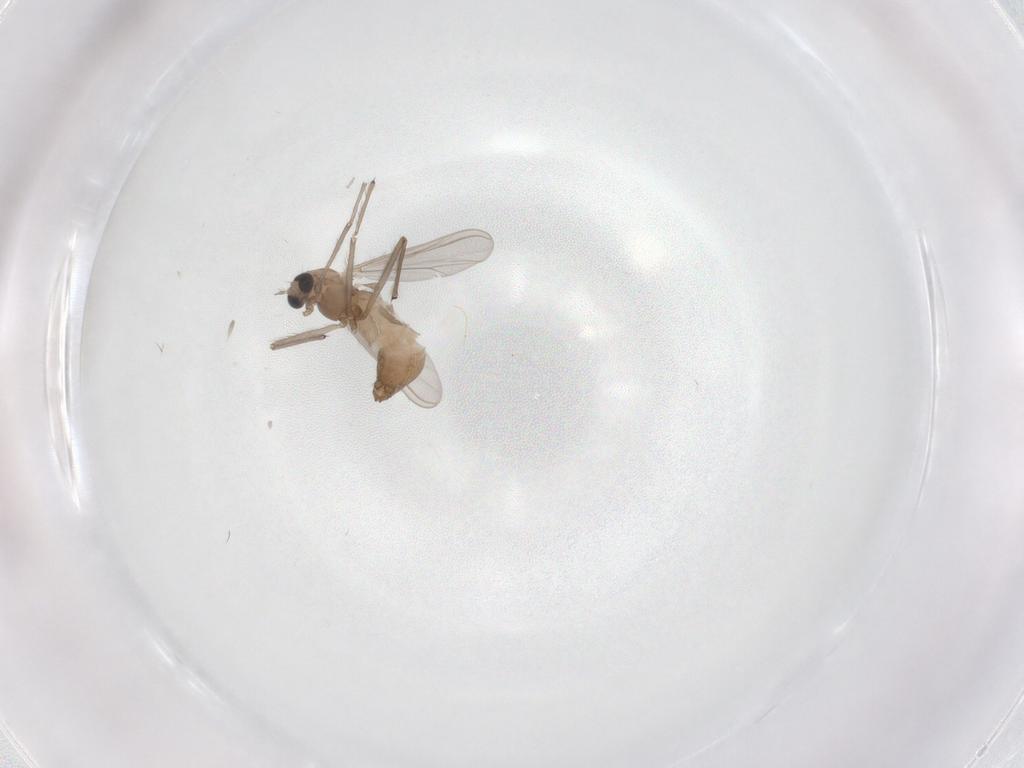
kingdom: Animalia
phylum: Arthropoda
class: Insecta
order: Diptera
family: Chironomidae
